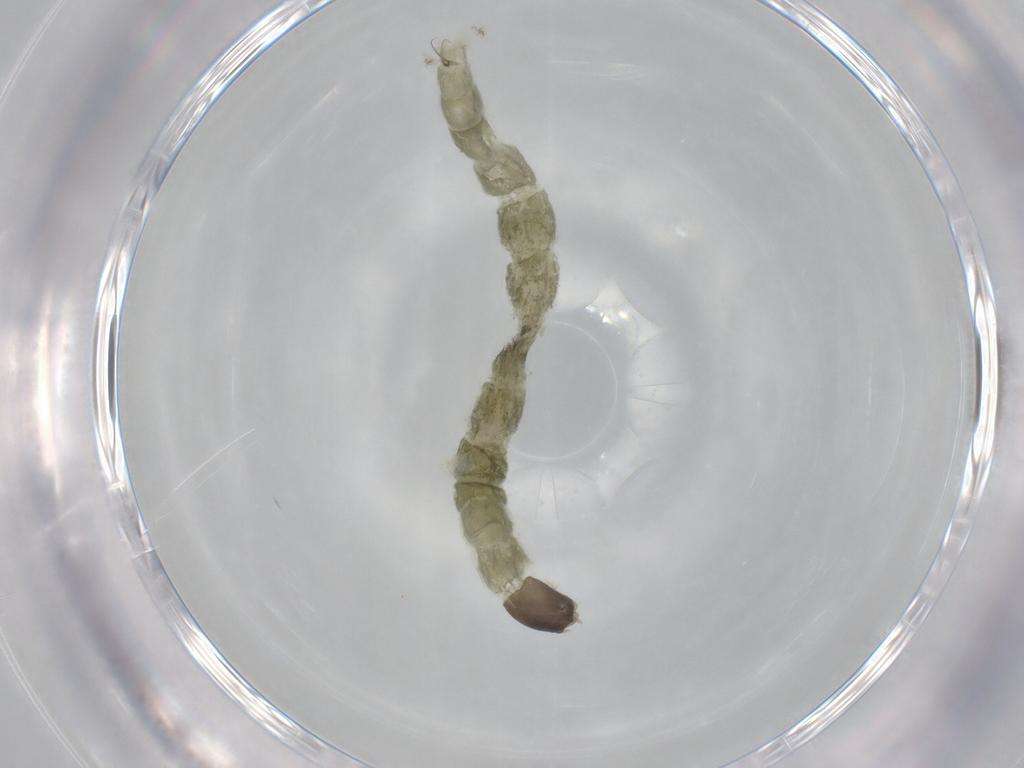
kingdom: Animalia
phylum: Arthropoda
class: Insecta
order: Diptera
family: Chironomidae
